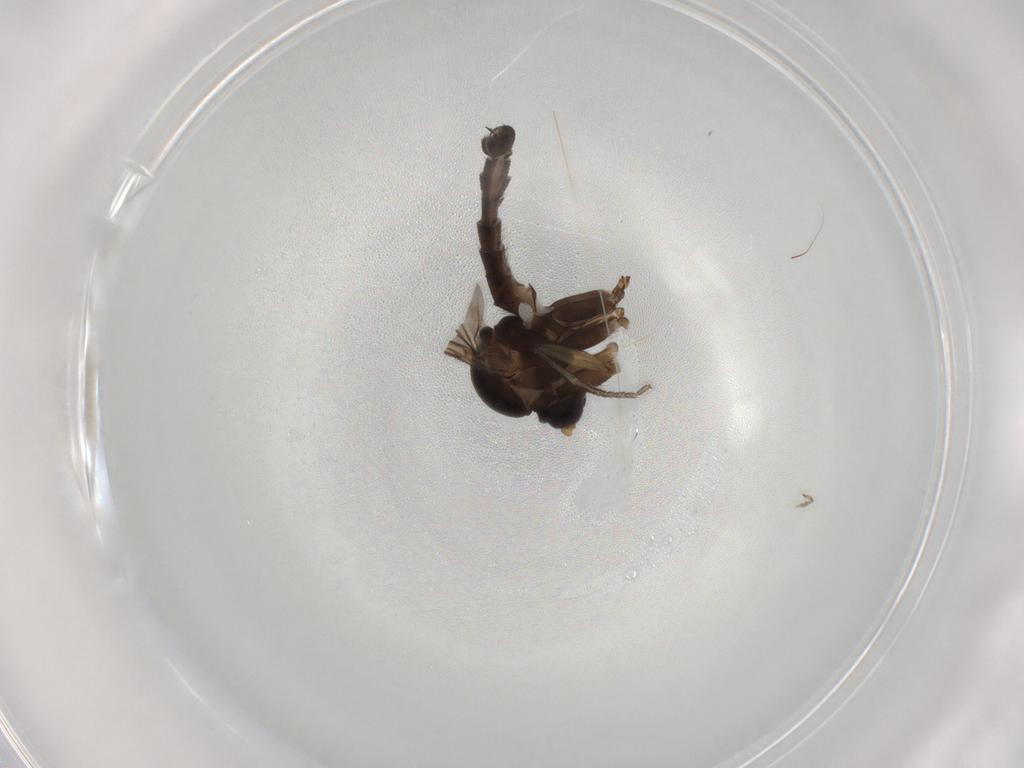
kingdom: Animalia
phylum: Arthropoda
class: Insecta
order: Diptera
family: Mycetophilidae
